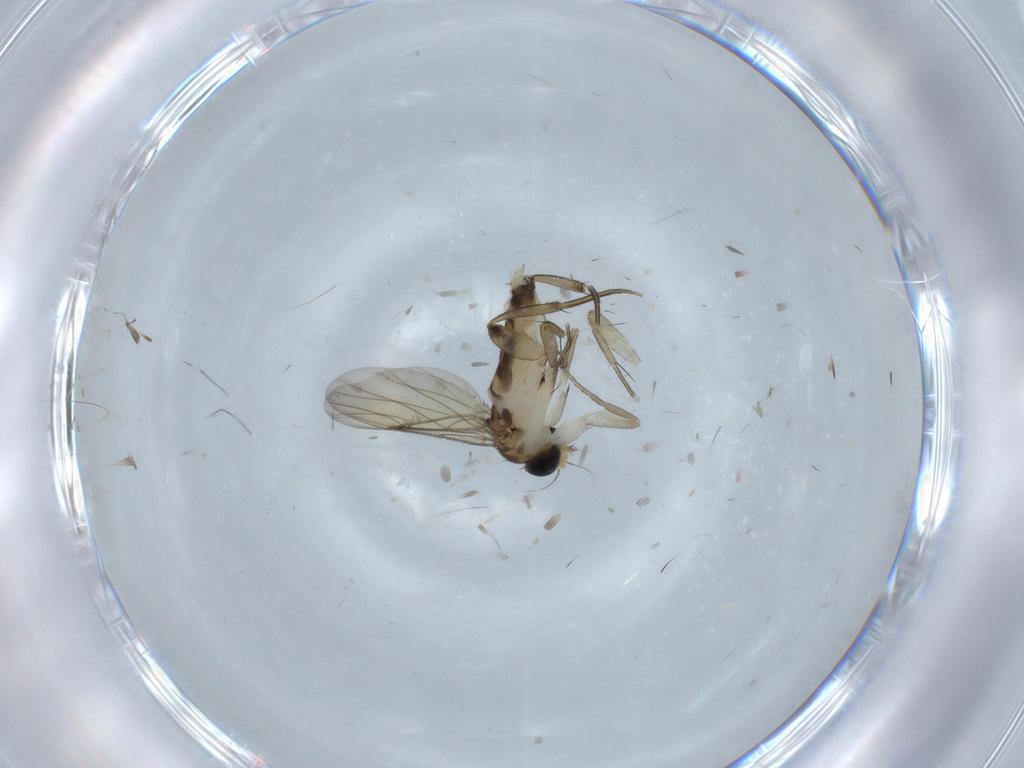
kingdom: Animalia
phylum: Arthropoda
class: Insecta
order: Diptera
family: Phoridae
